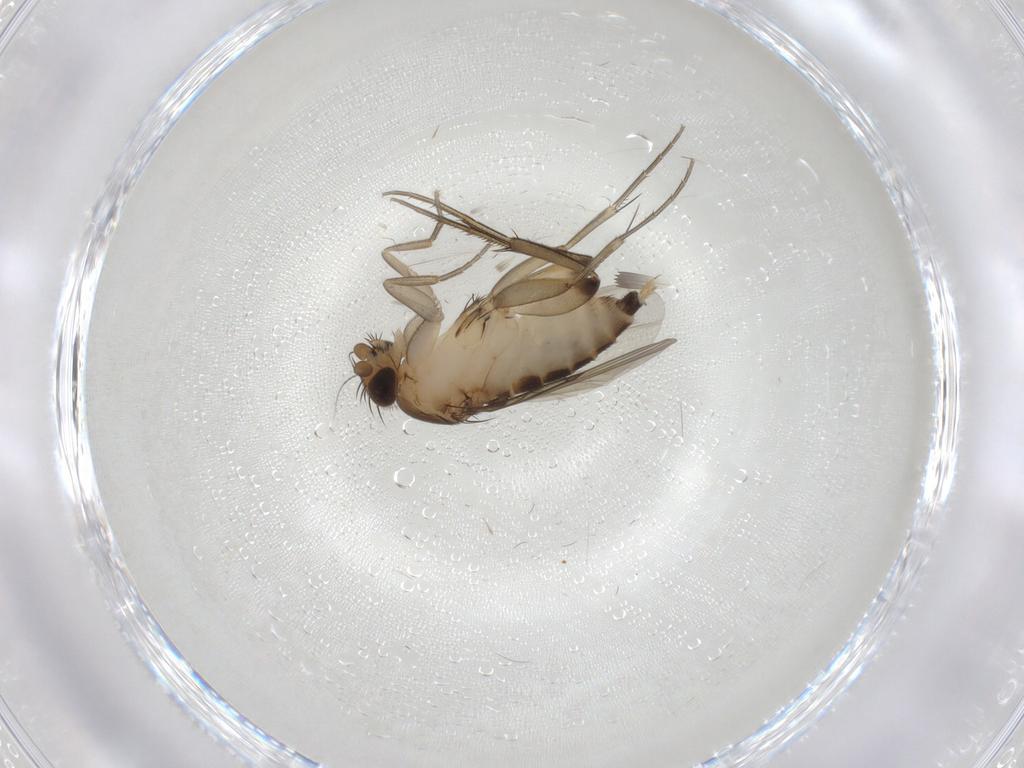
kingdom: Animalia
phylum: Arthropoda
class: Insecta
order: Diptera
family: Phoridae
